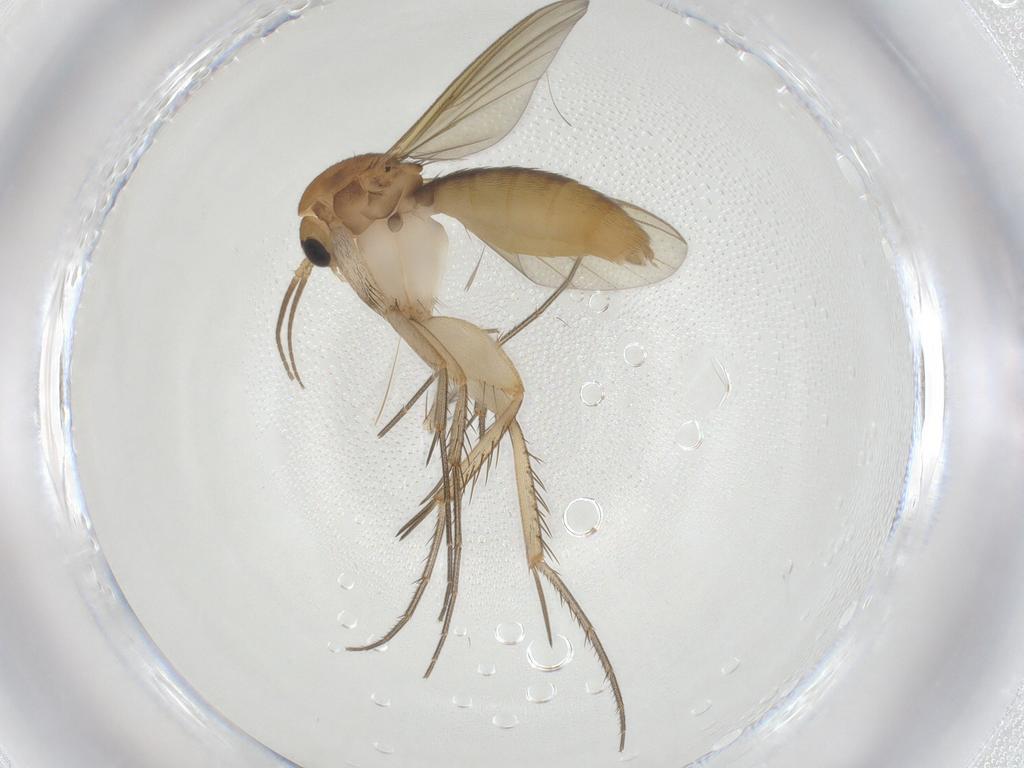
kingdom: Animalia
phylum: Arthropoda
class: Insecta
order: Diptera
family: Mycetophilidae
